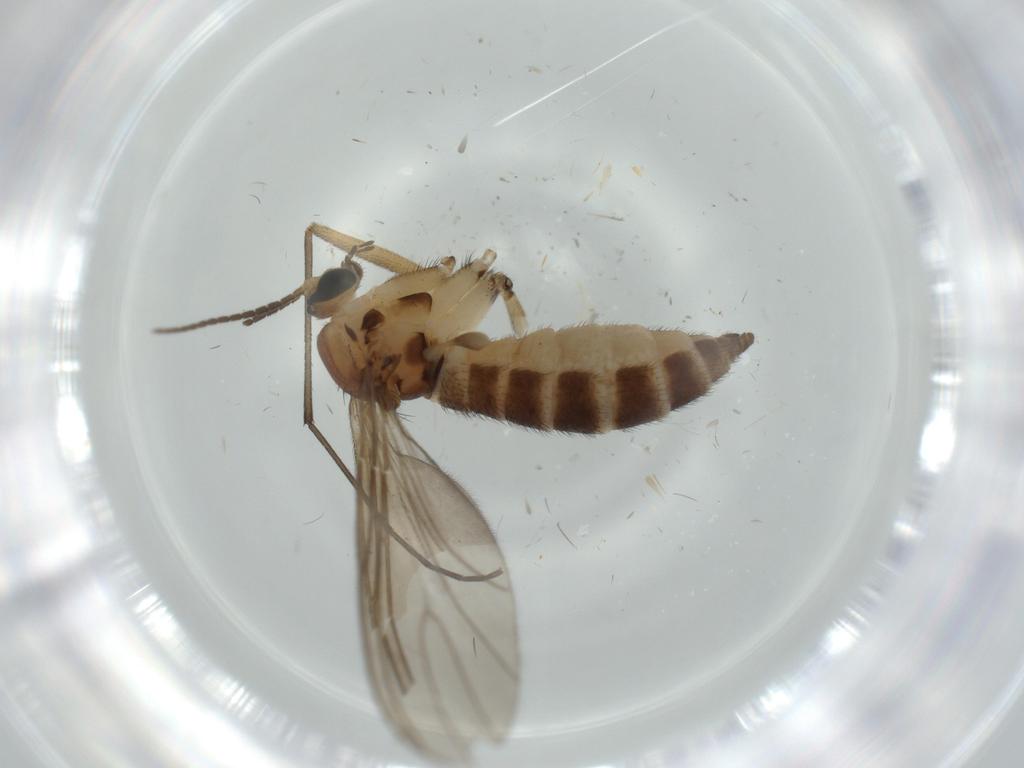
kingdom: Animalia
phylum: Arthropoda
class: Insecta
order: Diptera
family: Sciaridae
